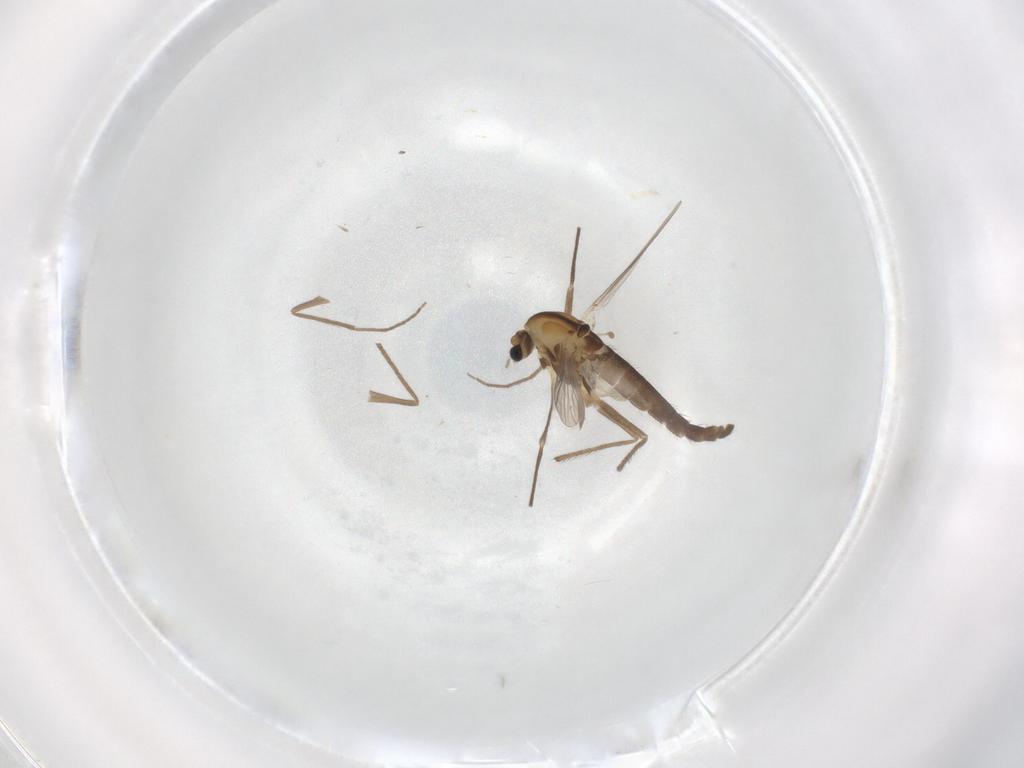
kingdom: Animalia
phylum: Arthropoda
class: Insecta
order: Diptera
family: Chironomidae
